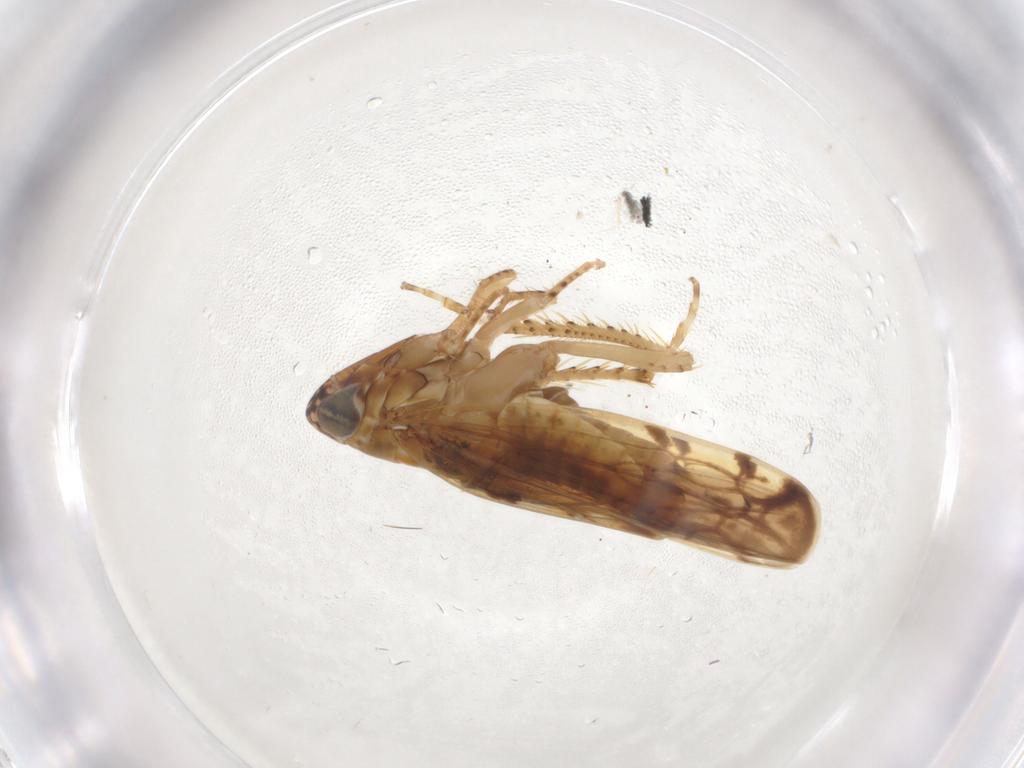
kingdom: Animalia
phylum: Arthropoda
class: Insecta
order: Hemiptera
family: Cicadellidae
